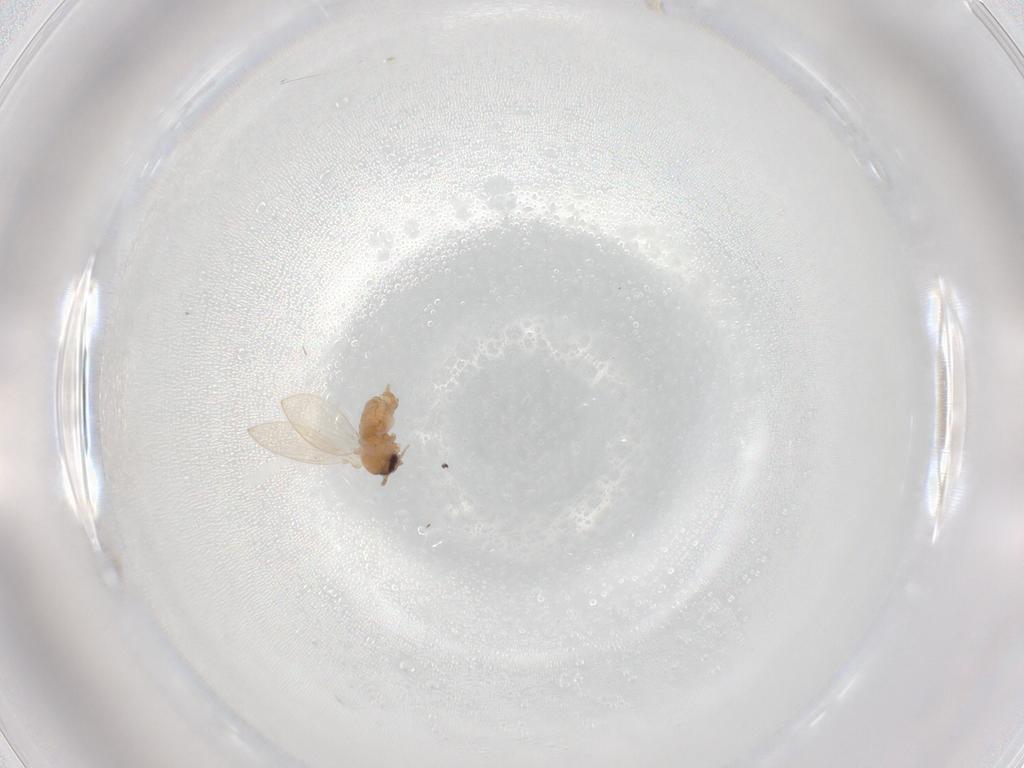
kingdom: Animalia
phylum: Arthropoda
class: Insecta
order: Diptera
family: Psychodidae
